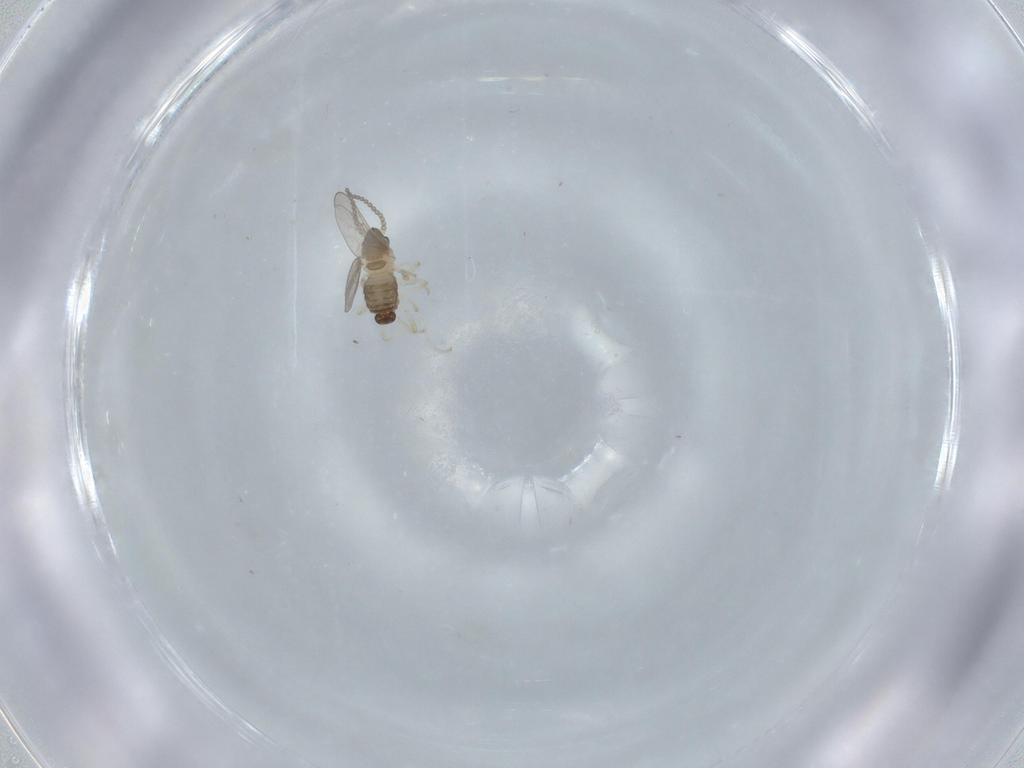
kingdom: Animalia
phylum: Arthropoda
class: Insecta
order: Diptera
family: Cecidomyiidae
